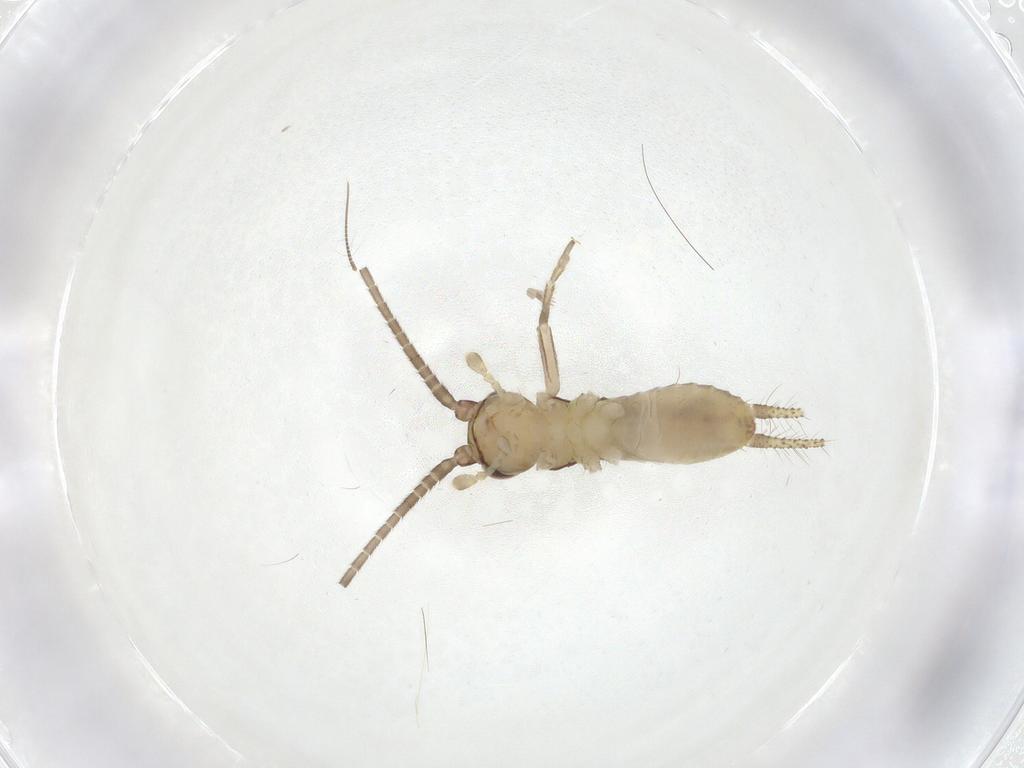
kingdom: Animalia
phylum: Arthropoda
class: Insecta
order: Orthoptera
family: Gryllidae
